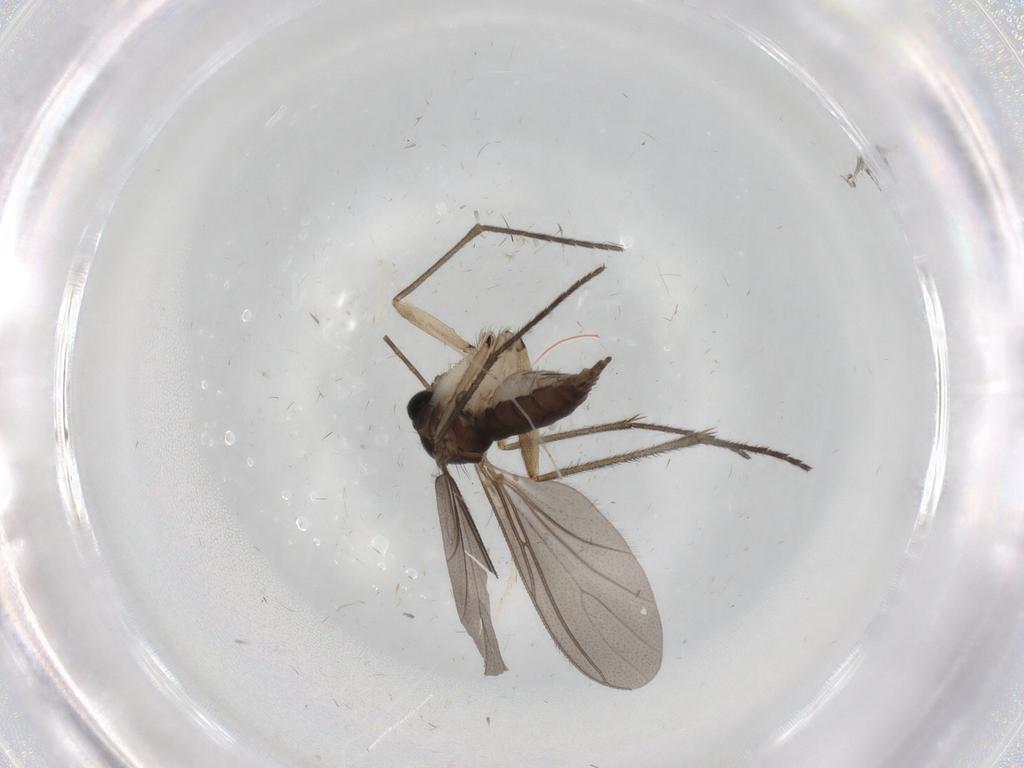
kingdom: Animalia
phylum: Arthropoda
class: Insecta
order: Diptera
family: Sciaridae
